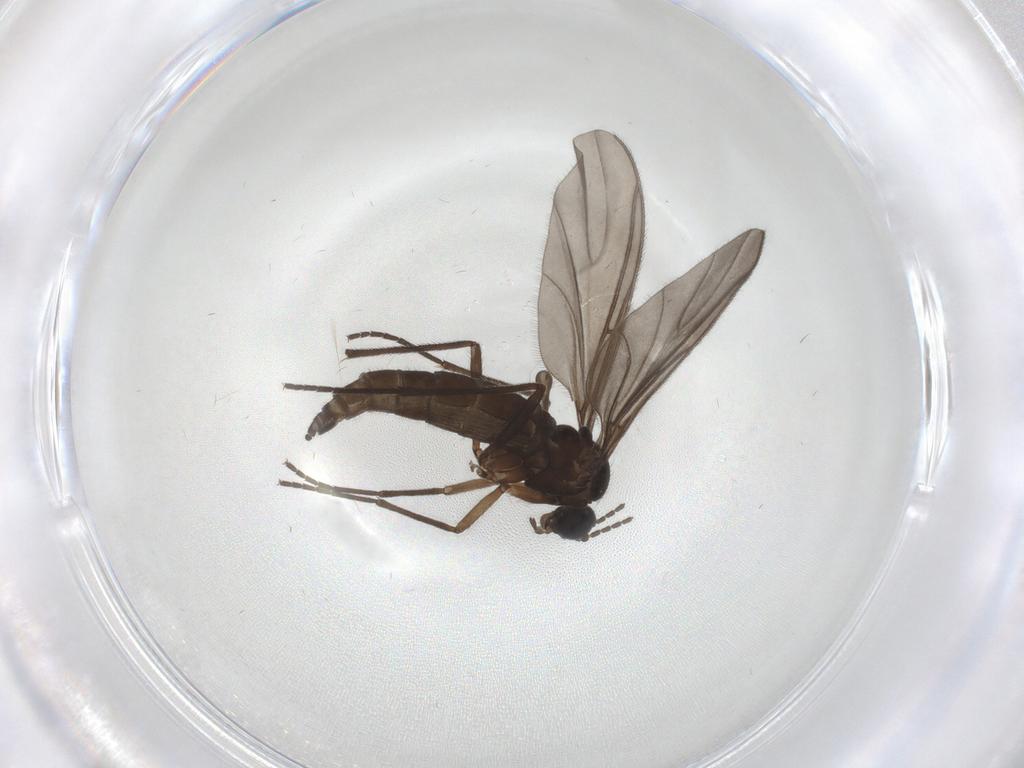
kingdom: Animalia
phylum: Arthropoda
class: Insecta
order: Diptera
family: Sciaridae
